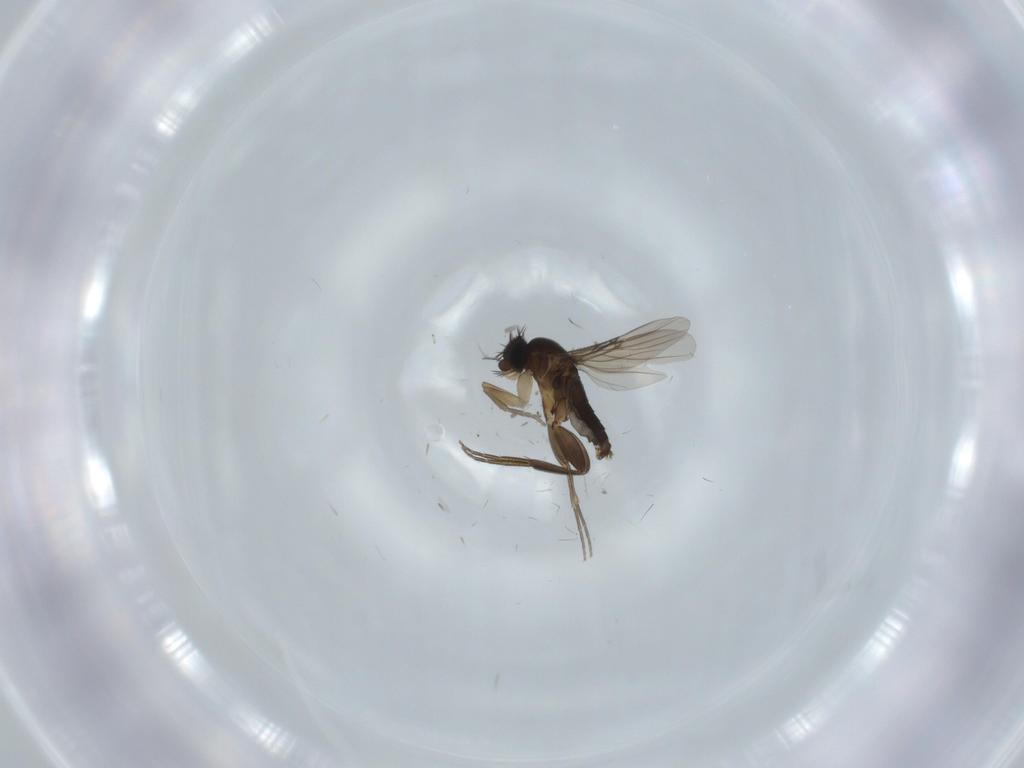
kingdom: Animalia
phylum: Arthropoda
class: Insecta
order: Diptera
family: Phoridae
